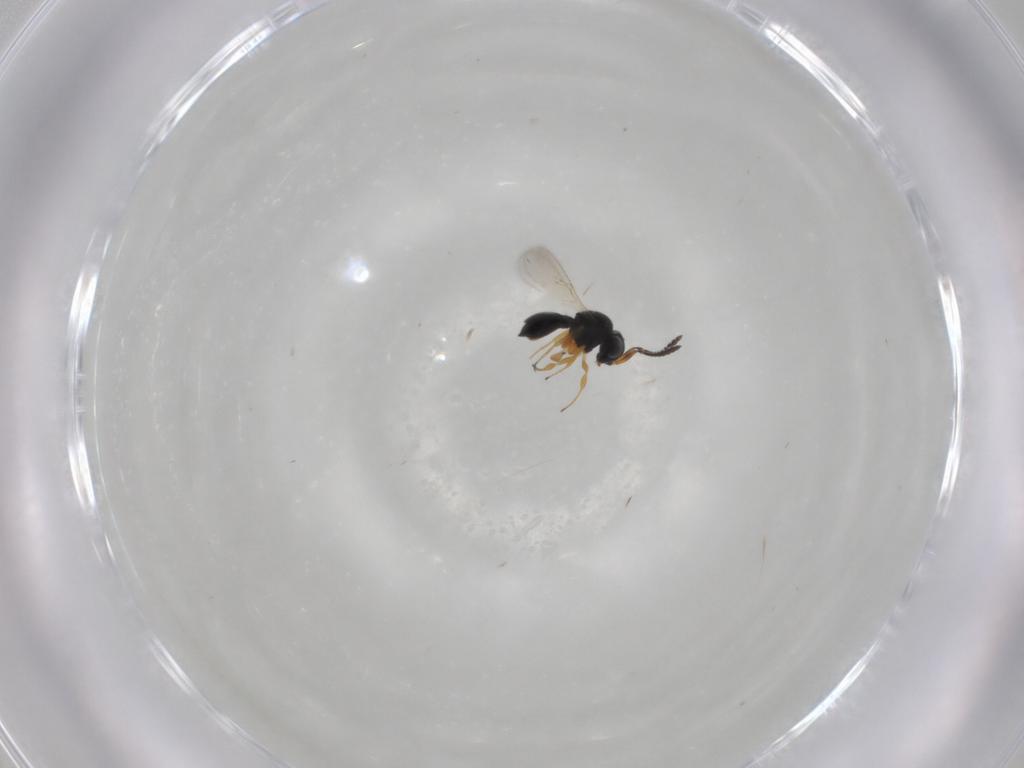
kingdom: Animalia
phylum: Arthropoda
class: Insecta
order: Hymenoptera
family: Scelionidae
